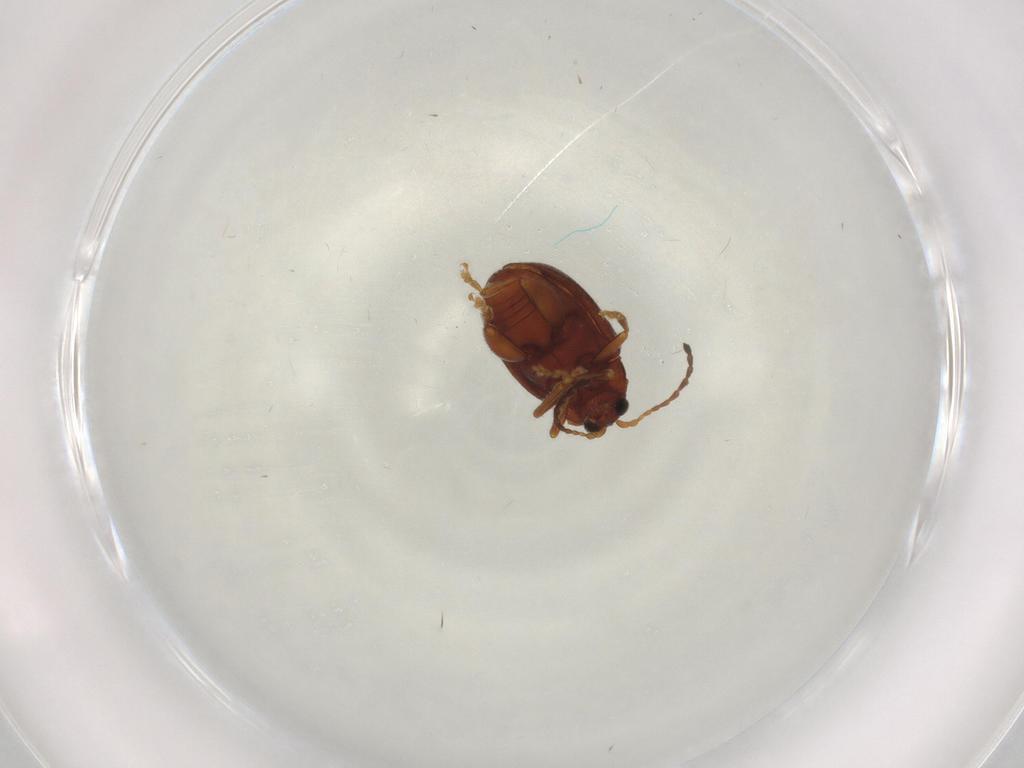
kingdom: Animalia
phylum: Arthropoda
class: Insecta
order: Coleoptera
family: Chrysomelidae
